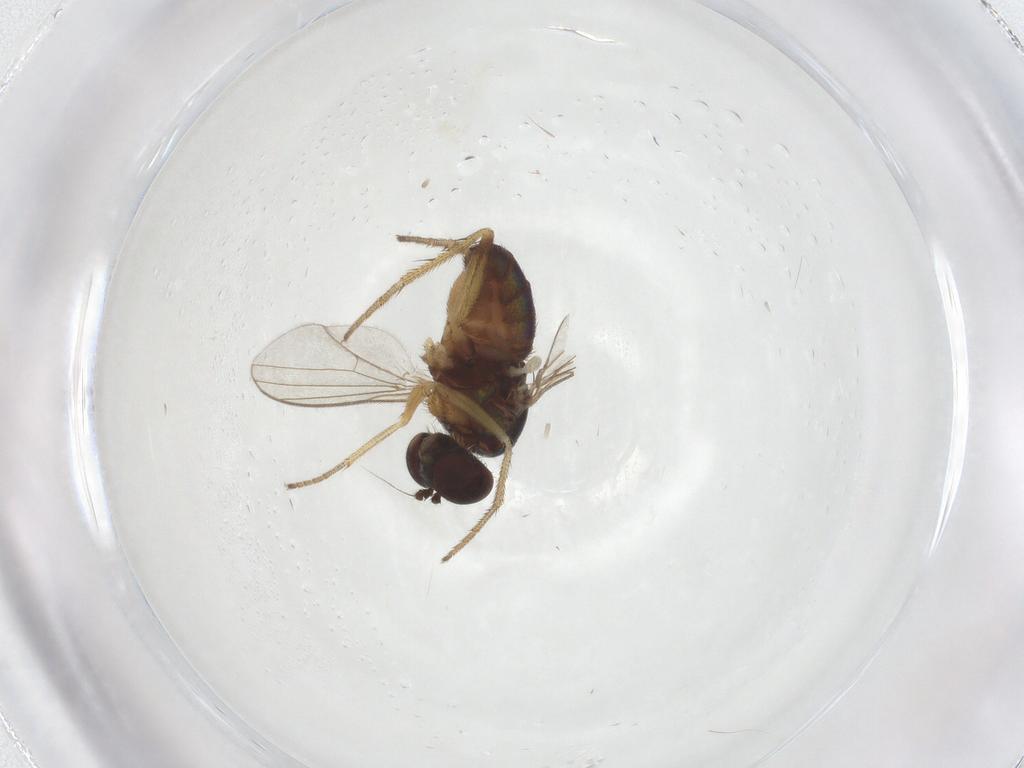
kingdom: Animalia
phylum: Arthropoda
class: Insecta
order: Diptera
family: Dolichopodidae
